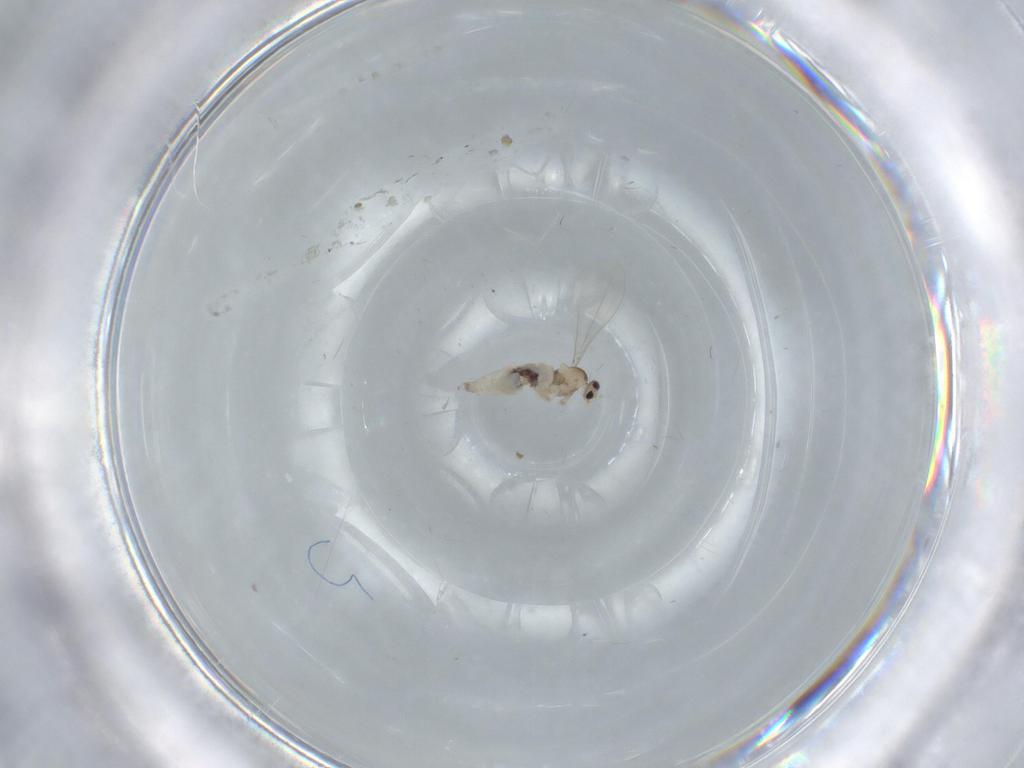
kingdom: Animalia
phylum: Arthropoda
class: Insecta
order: Diptera
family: Cecidomyiidae
